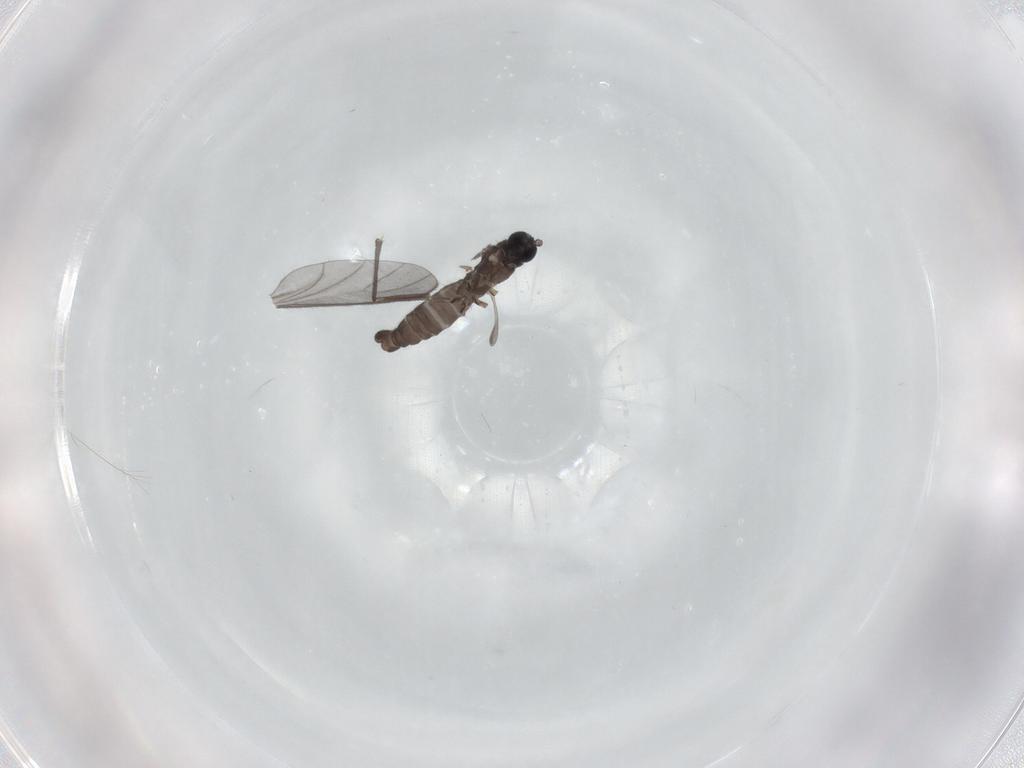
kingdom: Animalia
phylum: Arthropoda
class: Insecta
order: Diptera
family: Sciaridae
